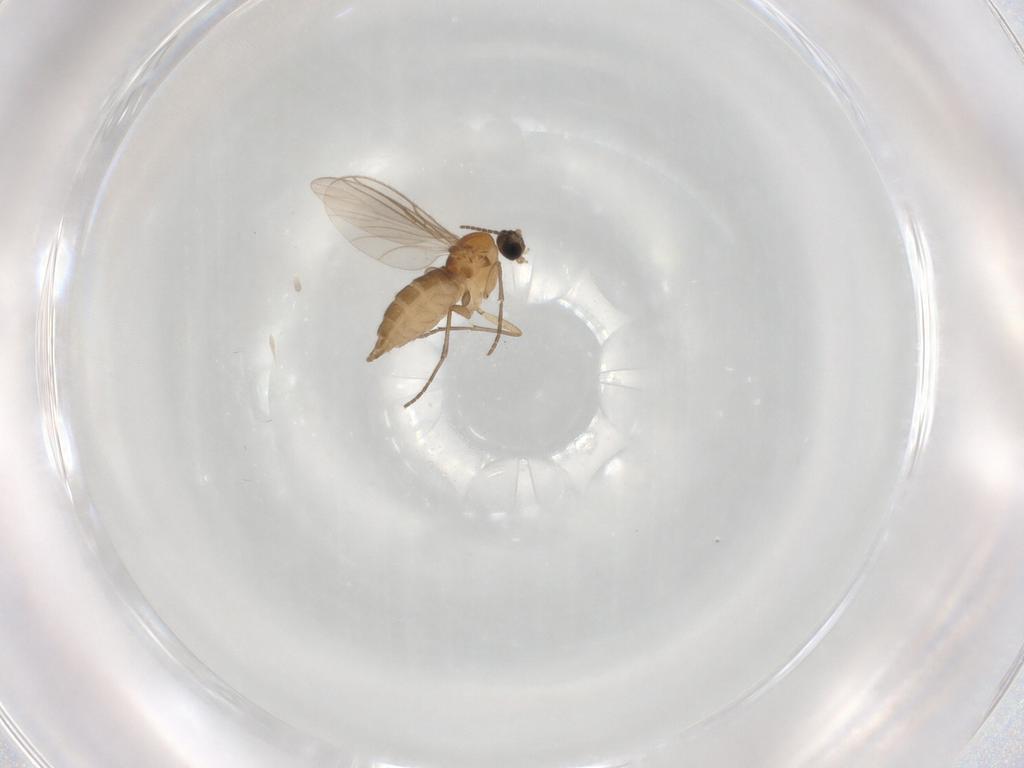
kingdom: Animalia
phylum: Arthropoda
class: Insecta
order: Diptera
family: Sciaridae
